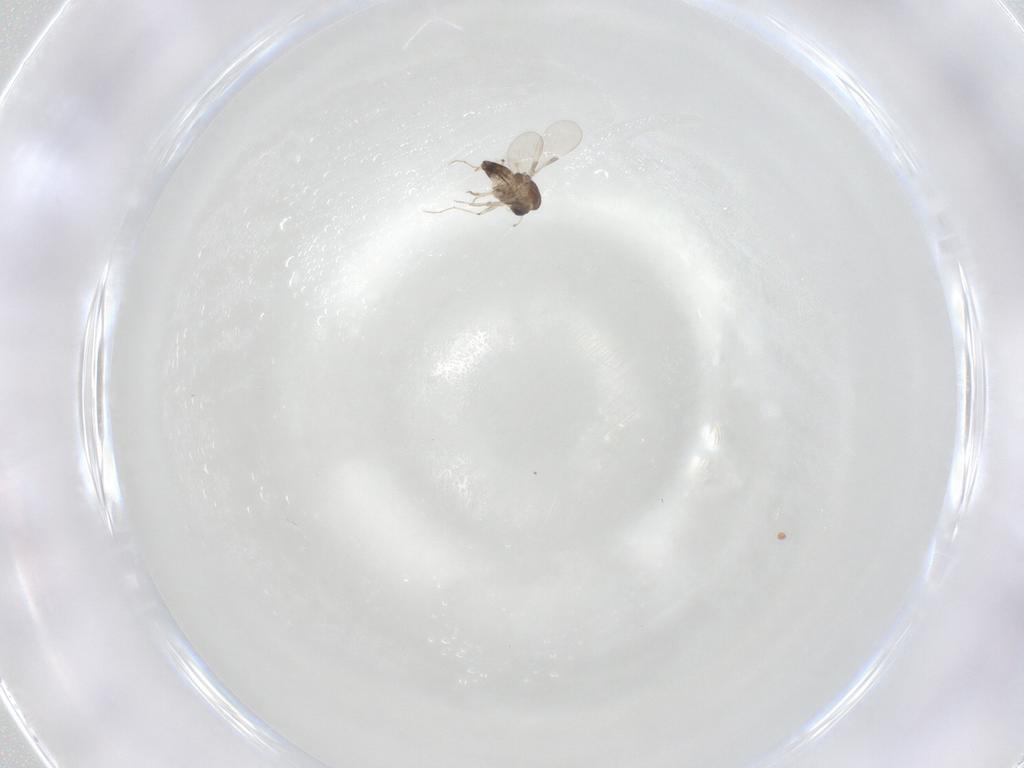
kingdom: Animalia
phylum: Arthropoda
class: Insecta
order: Diptera
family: Chironomidae
